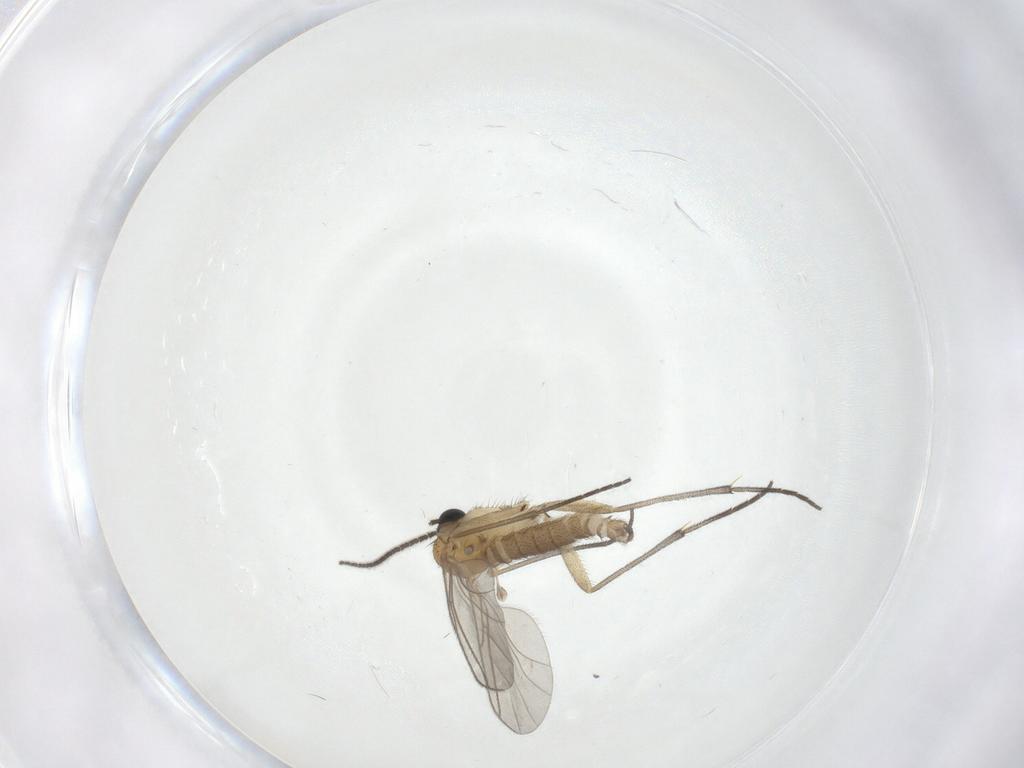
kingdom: Animalia
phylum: Arthropoda
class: Insecta
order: Diptera
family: Sciaridae
